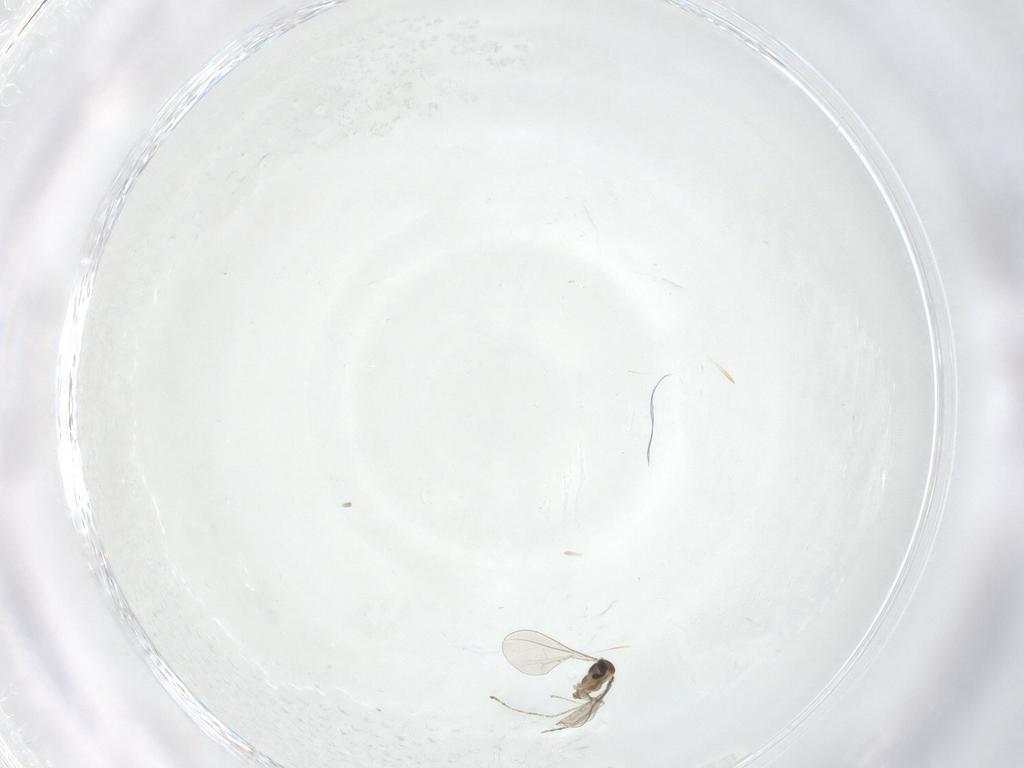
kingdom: Animalia
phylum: Arthropoda
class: Insecta
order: Diptera
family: Cecidomyiidae
